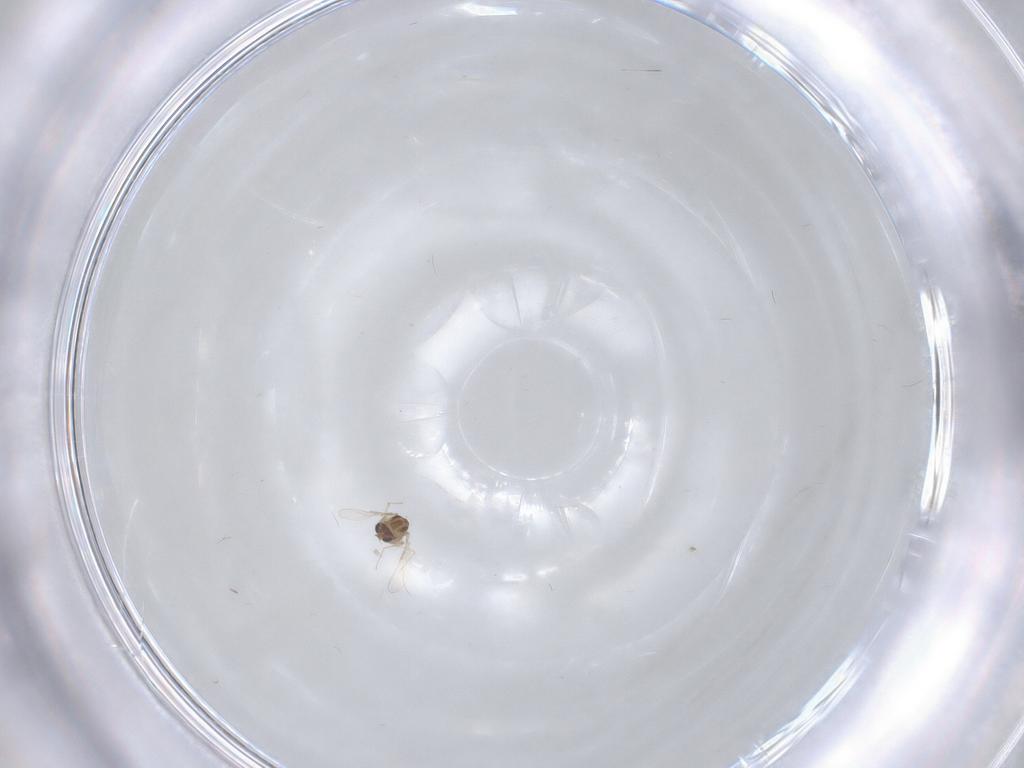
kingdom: Animalia
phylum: Arthropoda
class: Insecta
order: Diptera
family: Chironomidae
